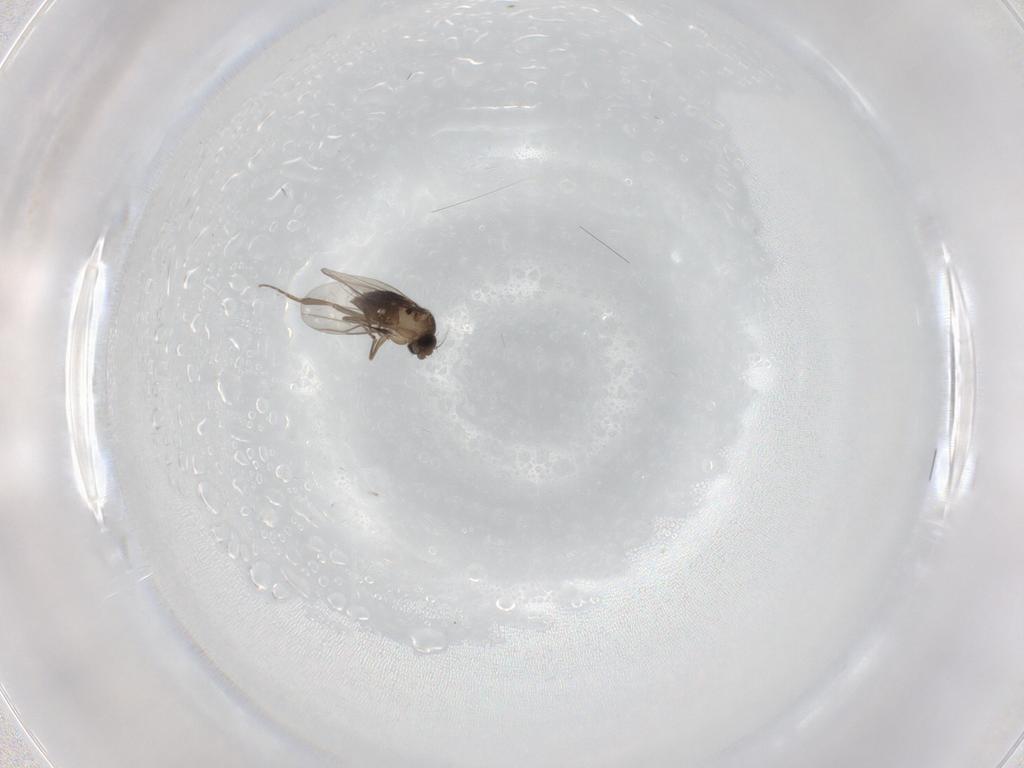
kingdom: Animalia
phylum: Arthropoda
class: Insecta
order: Diptera
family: Phoridae
